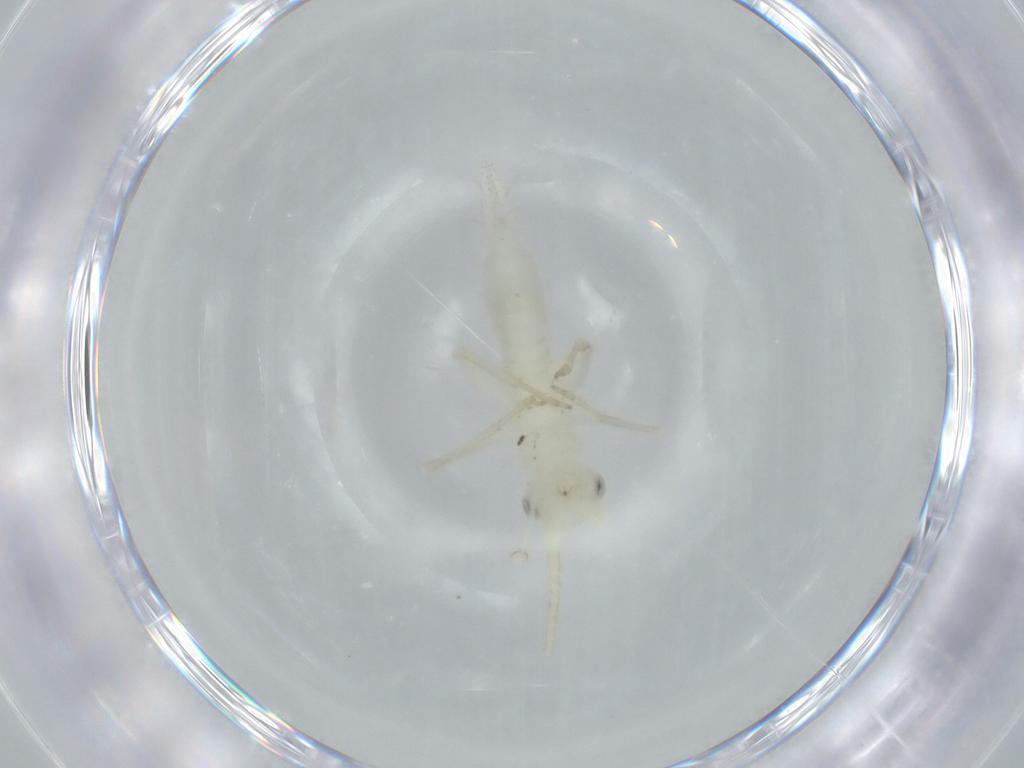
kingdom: Animalia
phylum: Arthropoda
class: Insecta
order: Orthoptera
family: Trigonidiidae
